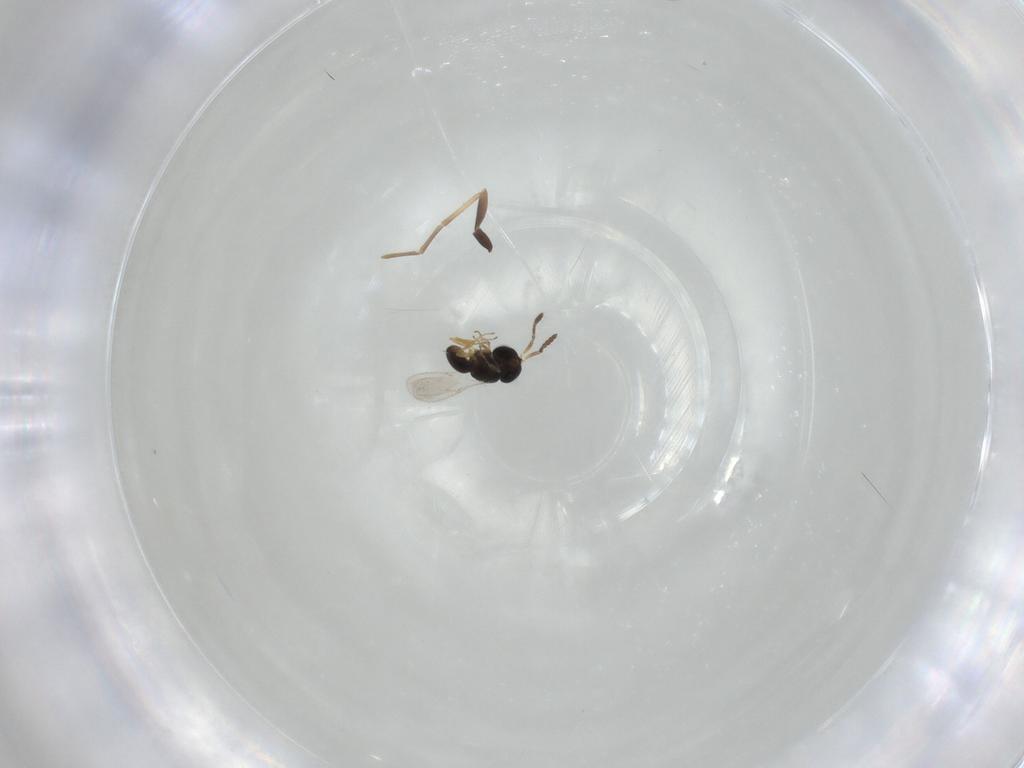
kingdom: Animalia
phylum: Arthropoda
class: Insecta
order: Hymenoptera
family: Pompilidae
